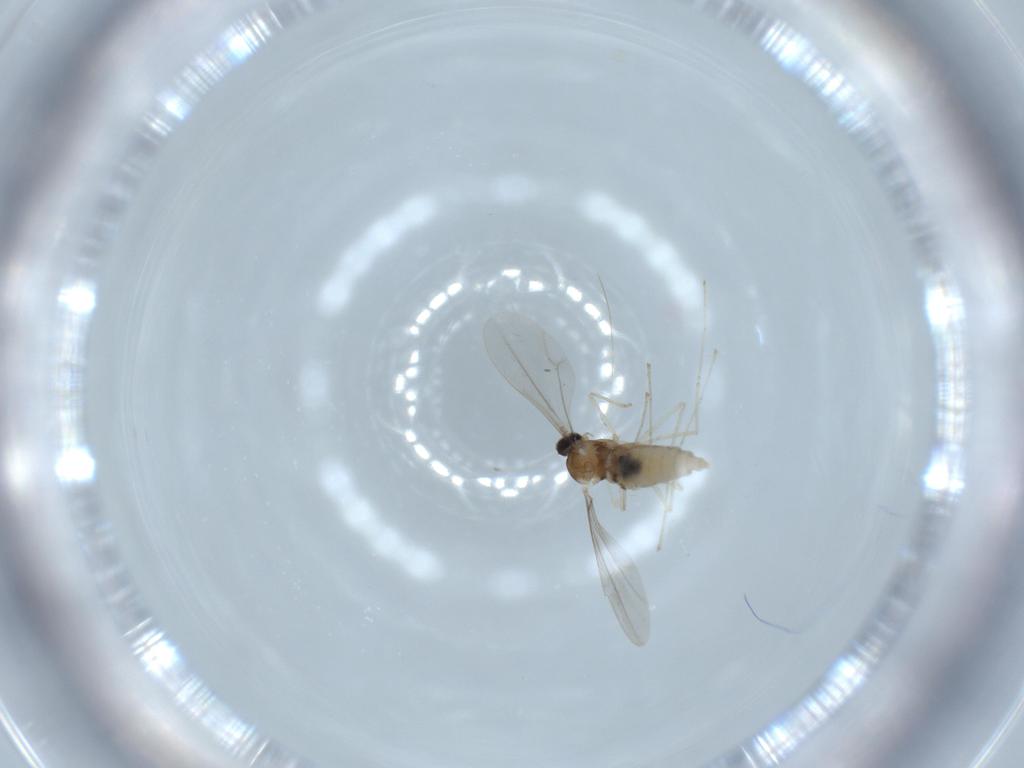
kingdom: Animalia
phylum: Arthropoda
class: Insecta
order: Diptera
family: Cecidomyiidae
